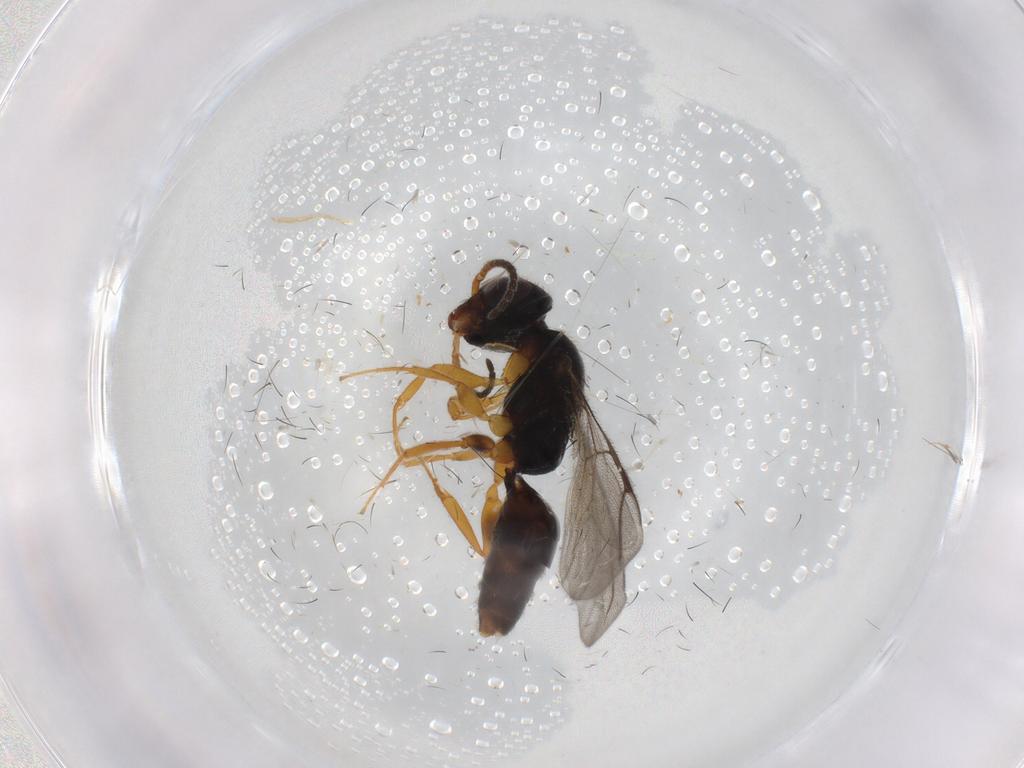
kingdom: Animalia
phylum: Arthropoda
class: Insecta
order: Hymenoptera
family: Bethylidae
